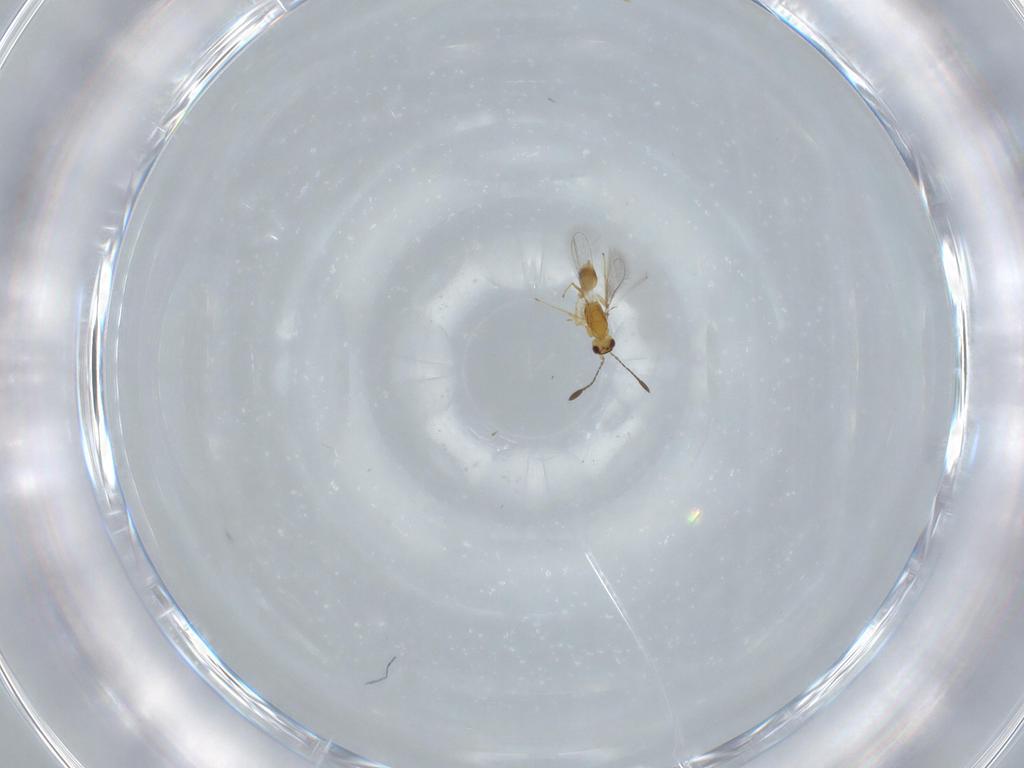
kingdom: Animalia
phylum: Arthropoda
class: Insecta
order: Hymenoptera
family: Mymaridae
